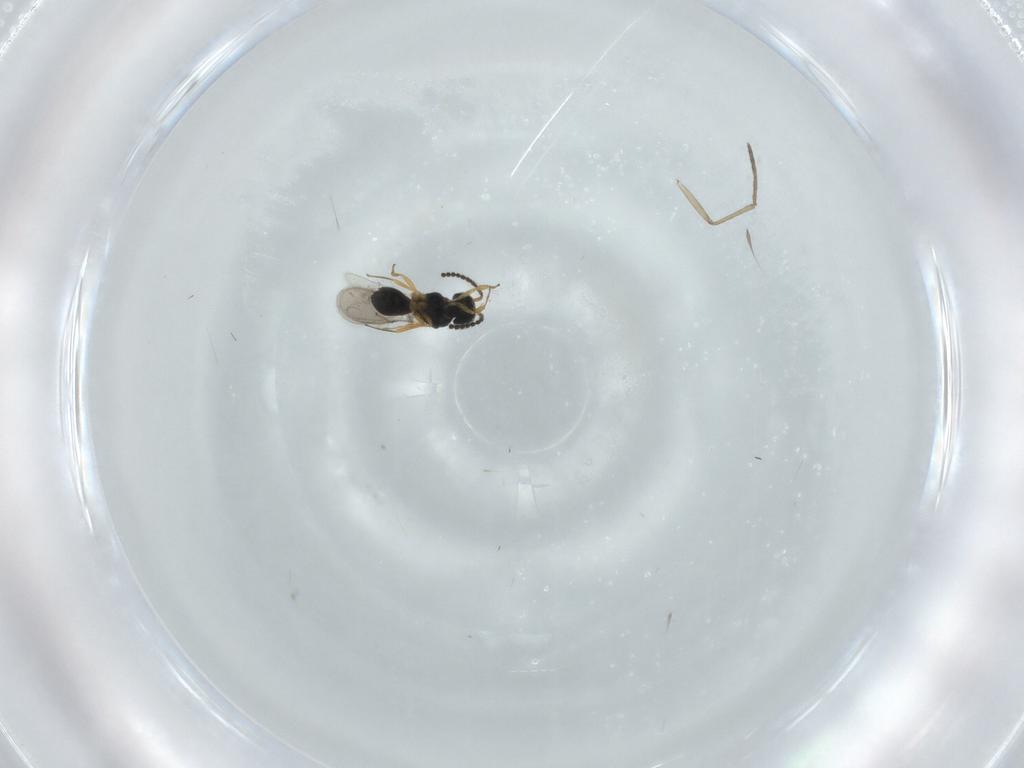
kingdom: Animalia
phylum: Arthropoda
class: Insecta
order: Hymenoptera
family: Scelionidae
